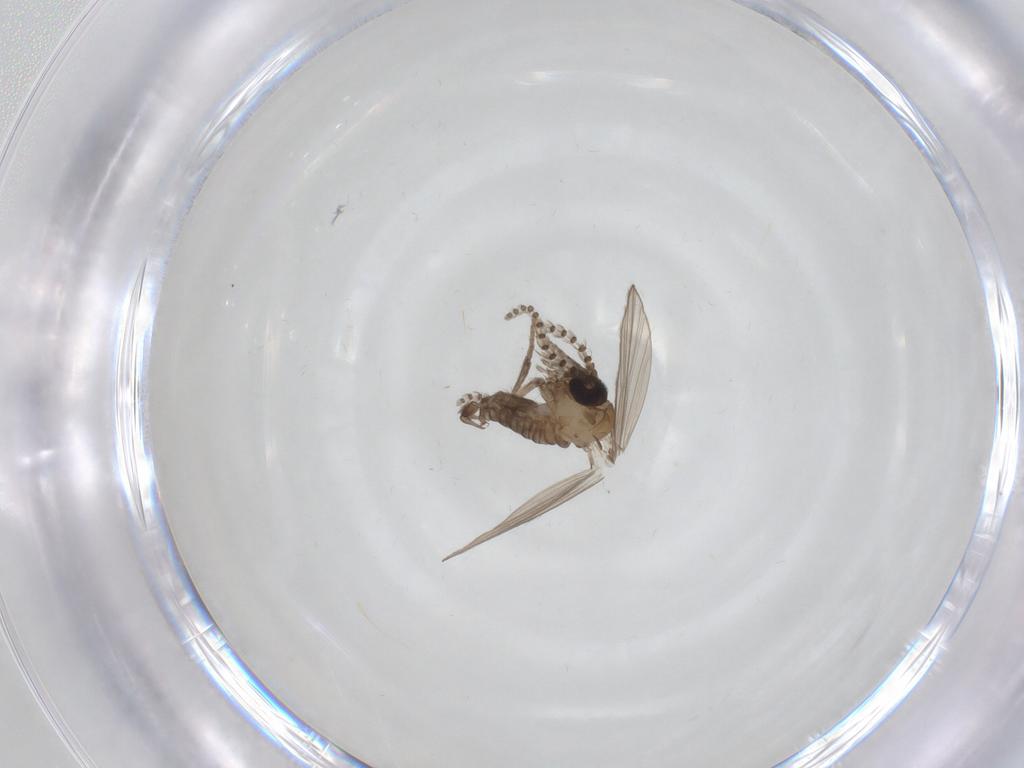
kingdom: Animalia
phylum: Arthropoda
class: Insecta
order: Diptera
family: Psychodidae
